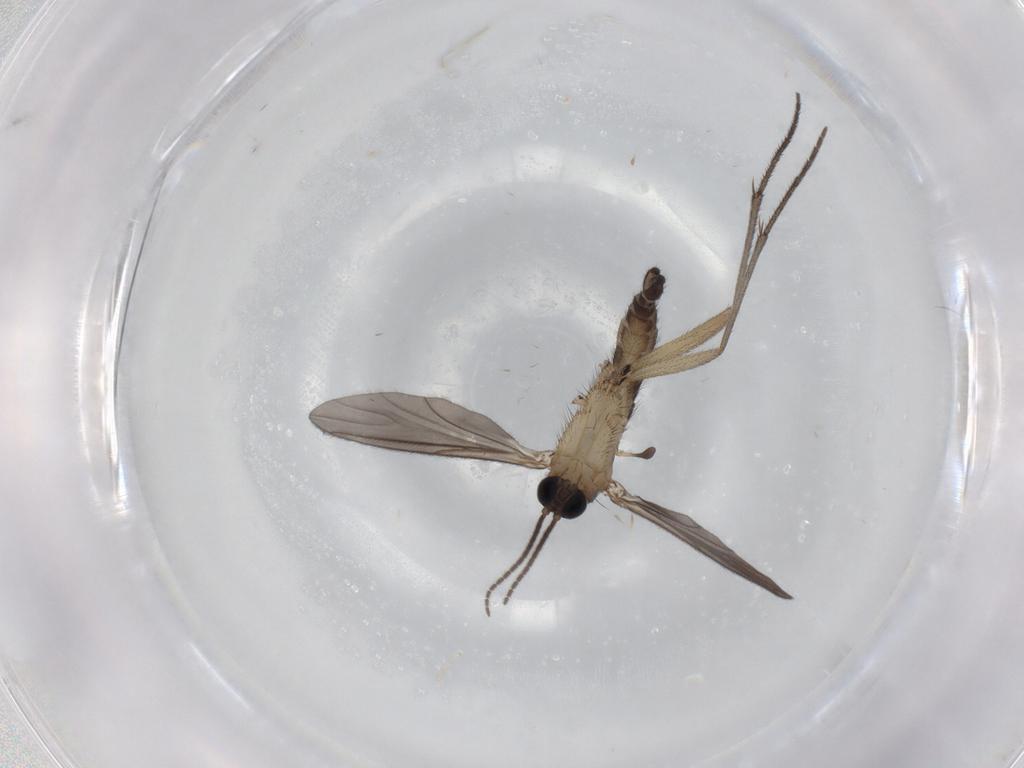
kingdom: Animalia
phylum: Arthropoda
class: Insecta
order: Diptera
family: Sciaridae
